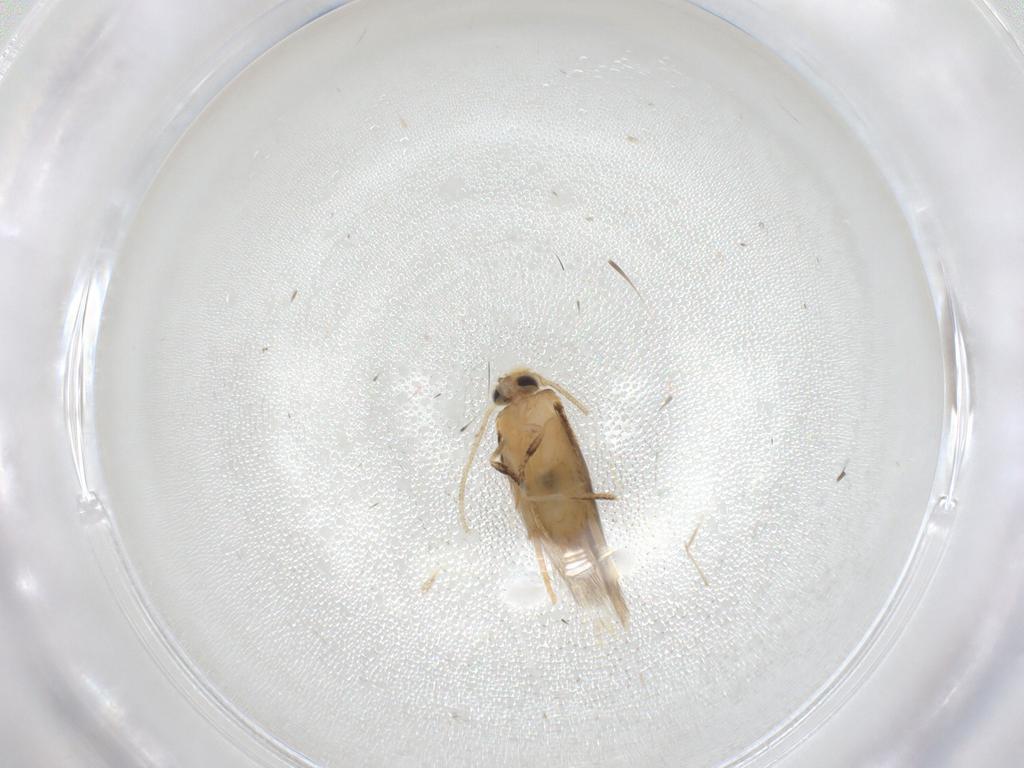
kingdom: Animalia
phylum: Arthropoda
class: Insecta
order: Lepidoptera
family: Nepticulidae
